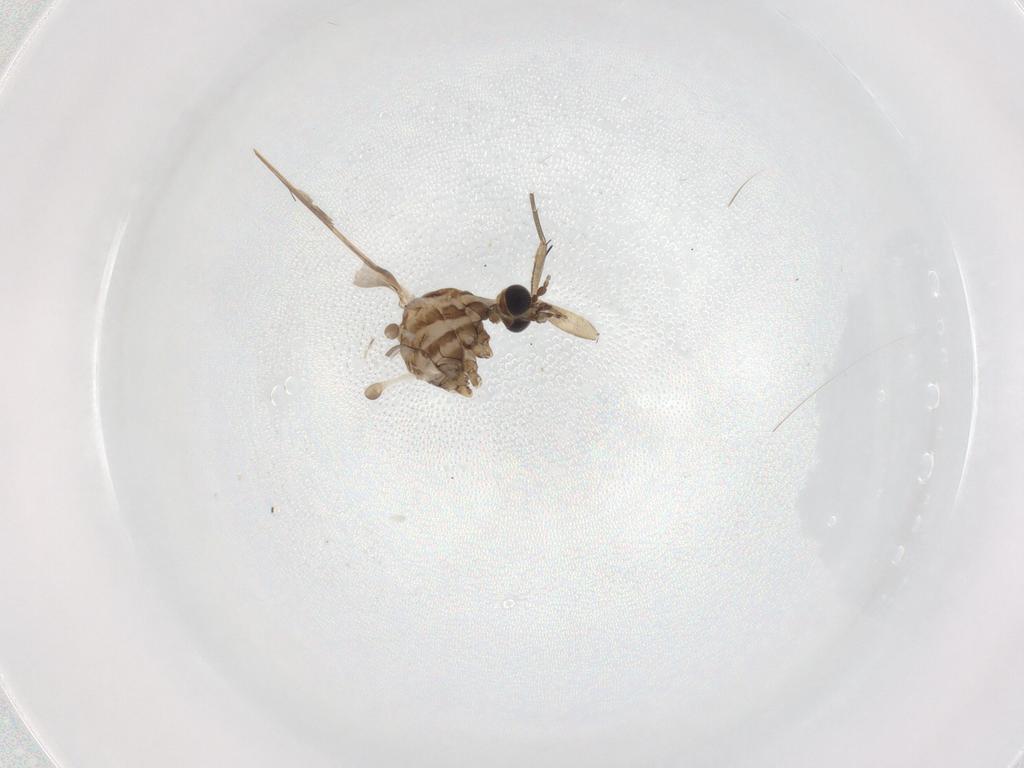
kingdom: Animalia
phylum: Arthropoda
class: Insecta
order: Diptera
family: Limoniidae
